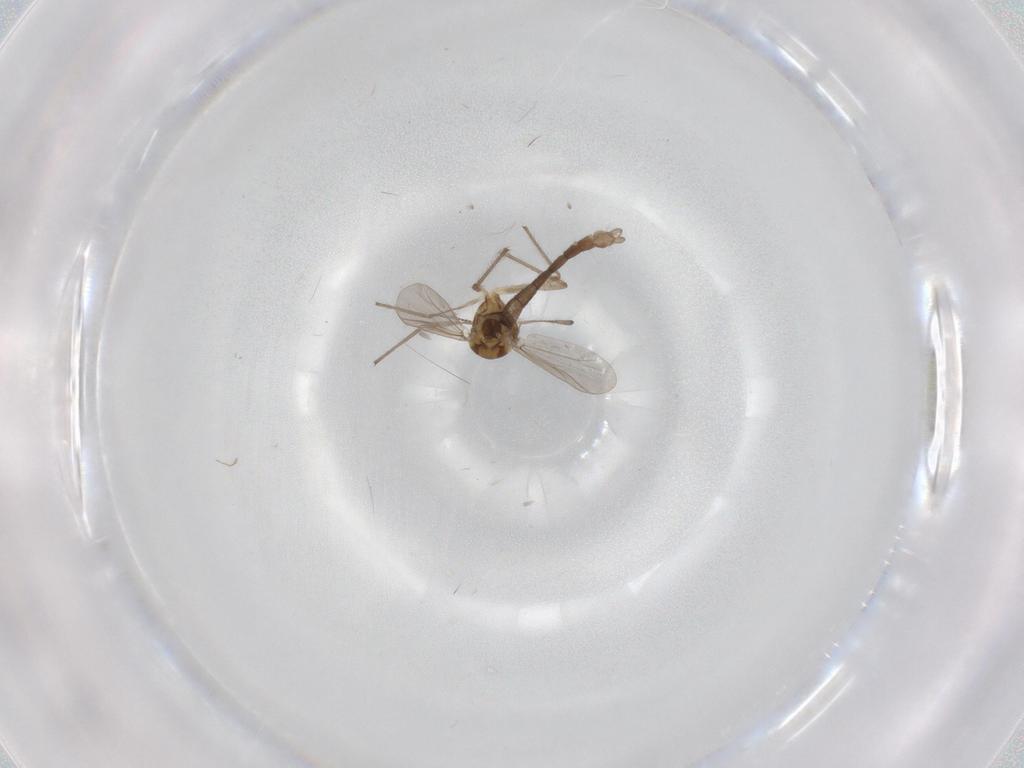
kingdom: Animalia
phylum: Arthropoda
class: Insecta
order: Diptera
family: Chironomidae
